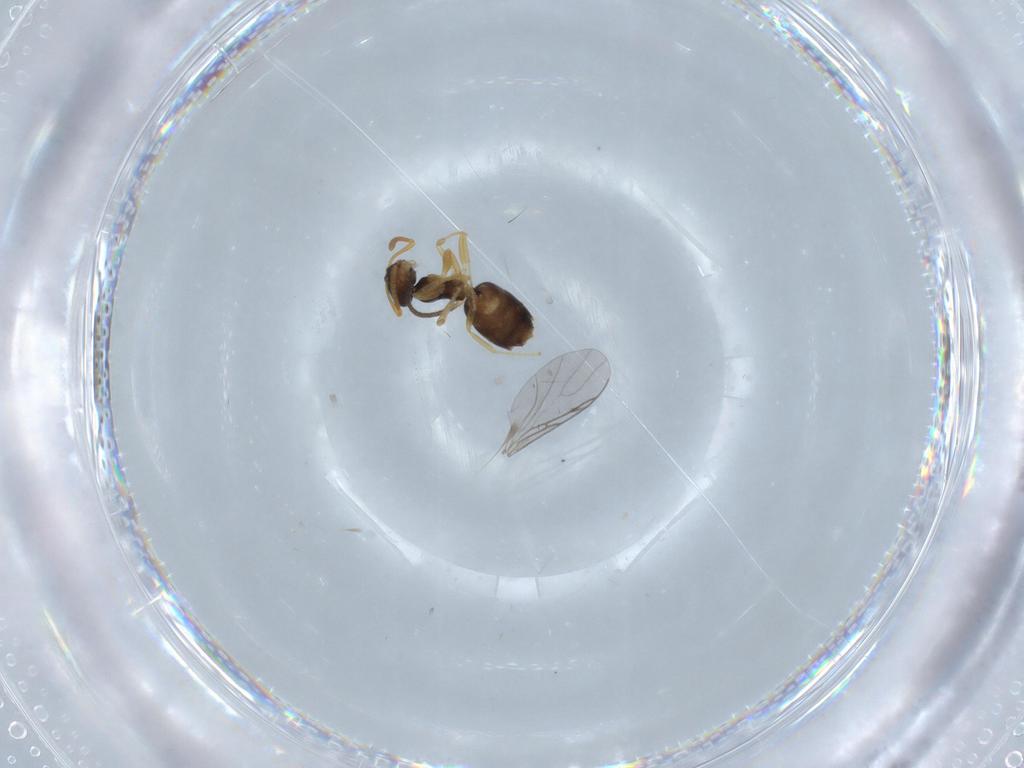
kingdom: Animalia
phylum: Arthropoda
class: Insecta
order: Hymenoptera
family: Formicidae
